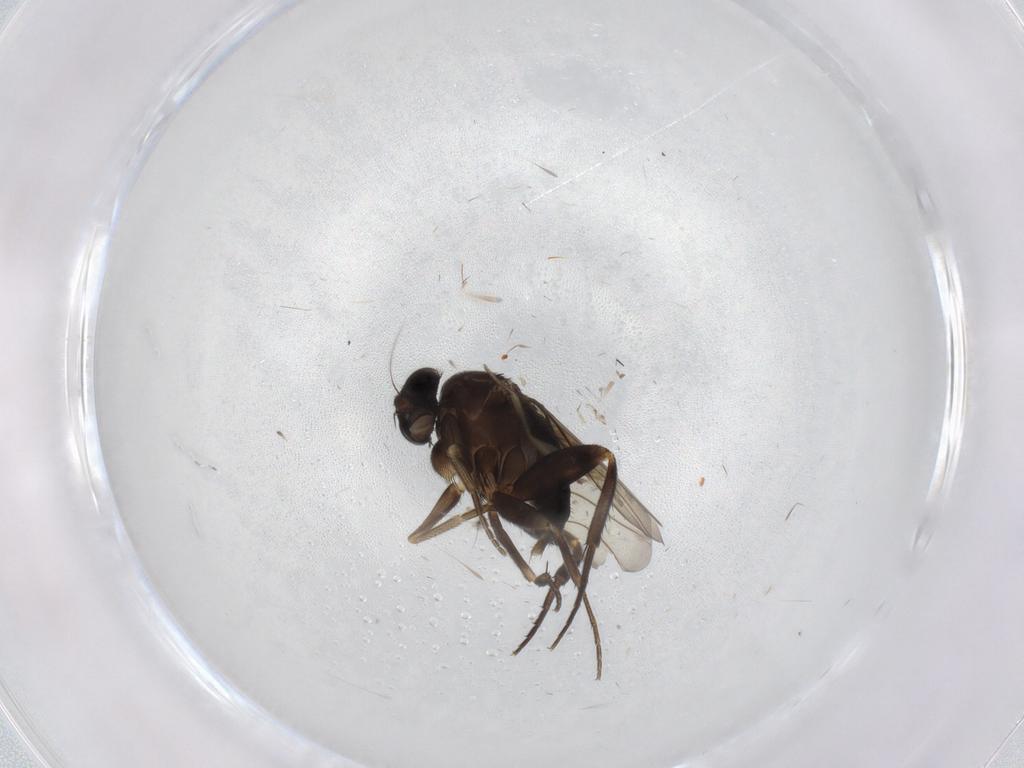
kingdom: Animalia
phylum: Arthropoda
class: Insecta
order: Diptera
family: Phoridae
